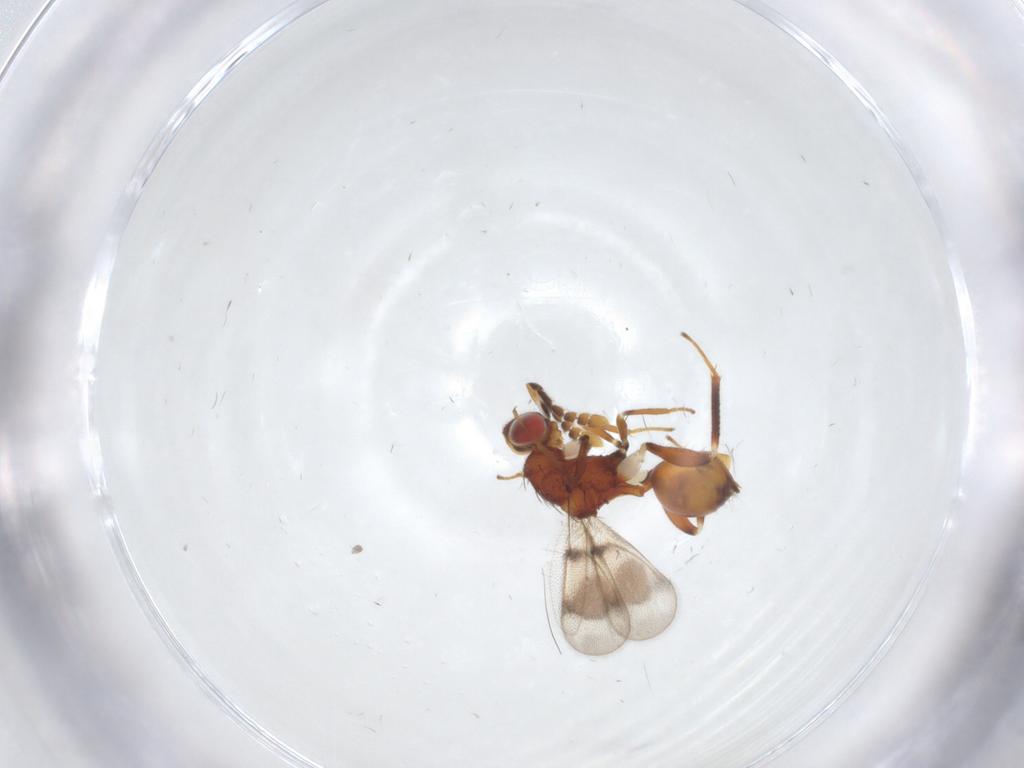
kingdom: Animalia
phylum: Arthropoda
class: Insecta
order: Hymenoptera
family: Eulophidae
